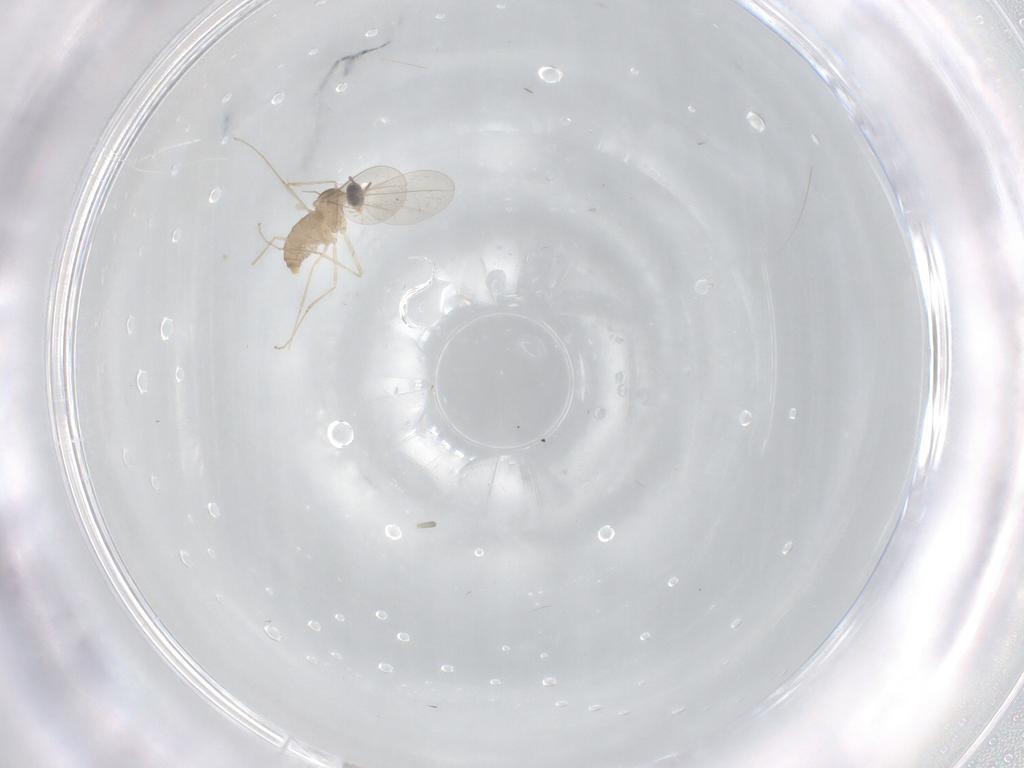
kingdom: Animalia
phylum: Arthropoda
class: Insecta
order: Diptera
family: Cecidomyiidae
